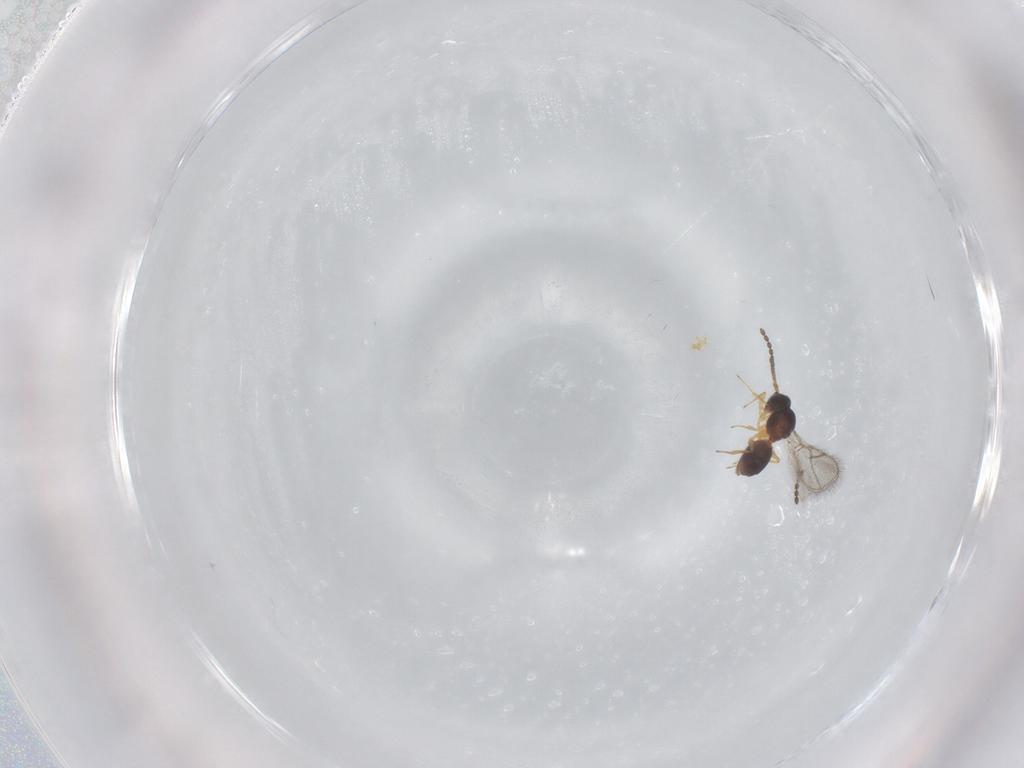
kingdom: Animalia
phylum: Arthropoda
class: Insecta
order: Hymenoptera
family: Figitidae
